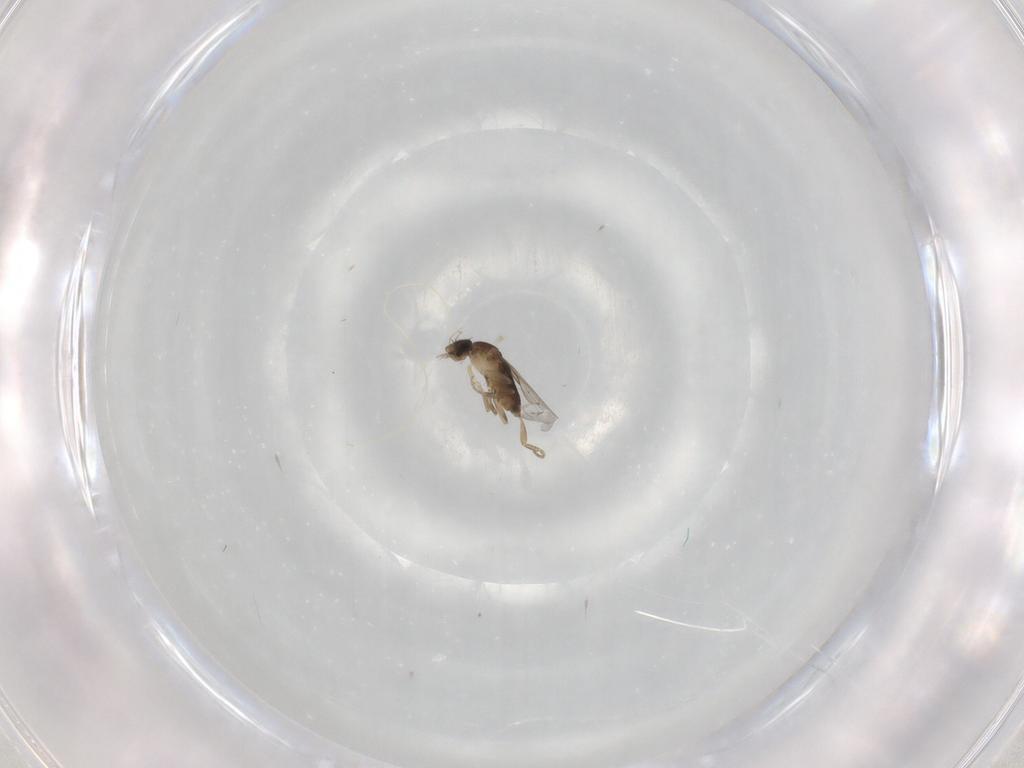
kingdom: Animalia
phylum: Arthropoda
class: Insecta
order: Diptera
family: Phoridae
